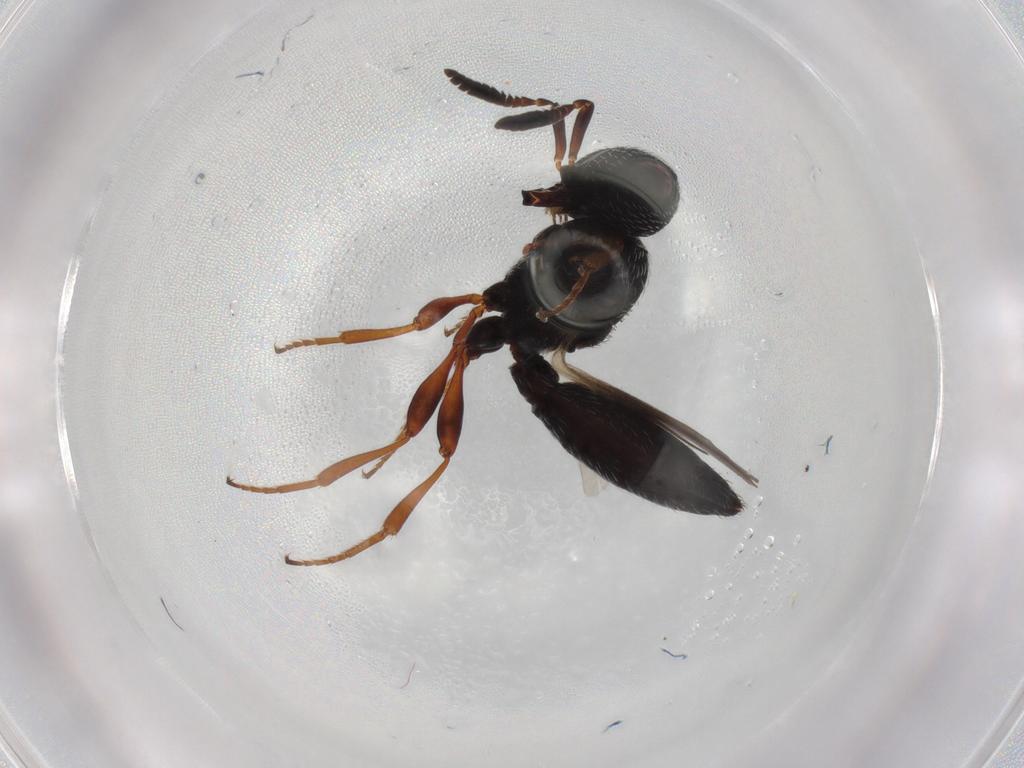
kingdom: Animalia
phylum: Arthropoda
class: Insecta
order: Hymenoptera
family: Scelionidae
